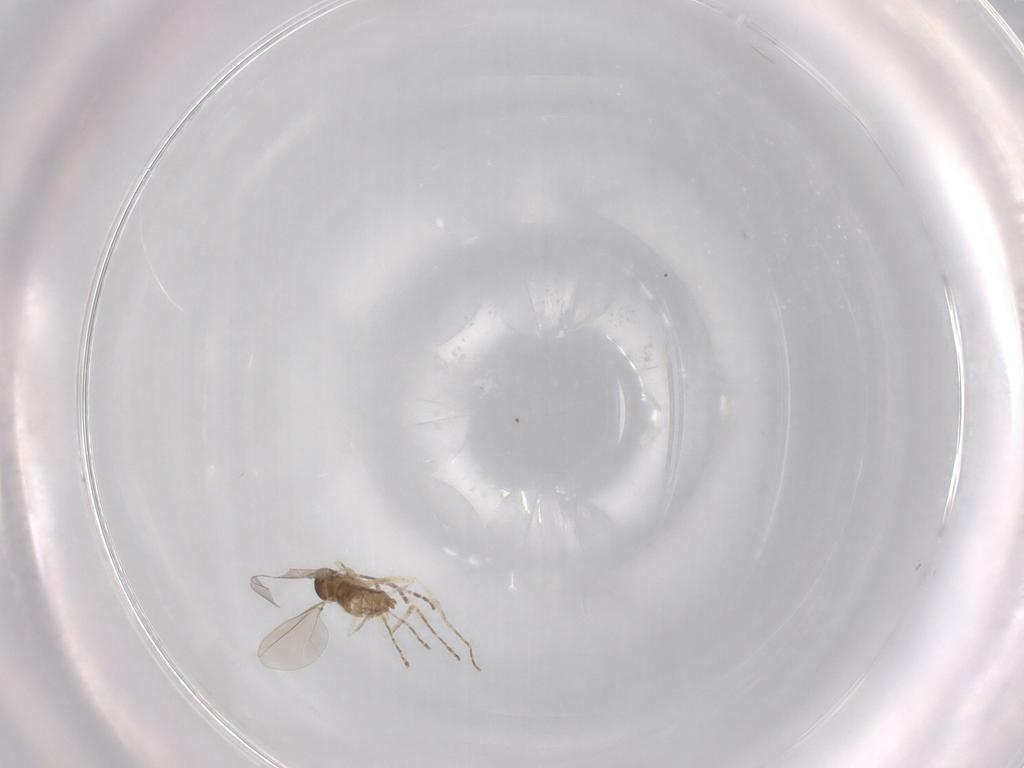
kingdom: Animalia
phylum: Arthropoda
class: Insecta
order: Diptera
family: Cecidomyiidae
